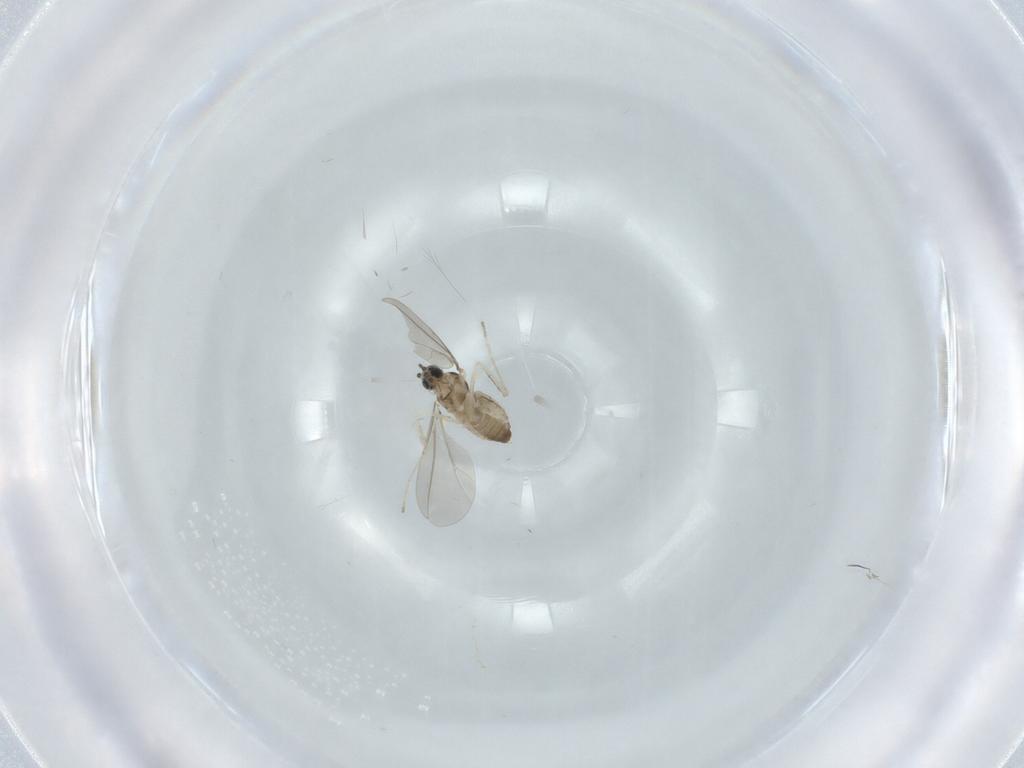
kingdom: Animalia
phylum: Arthropoda
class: Insecta
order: Diptera
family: Cecidomyiidae
